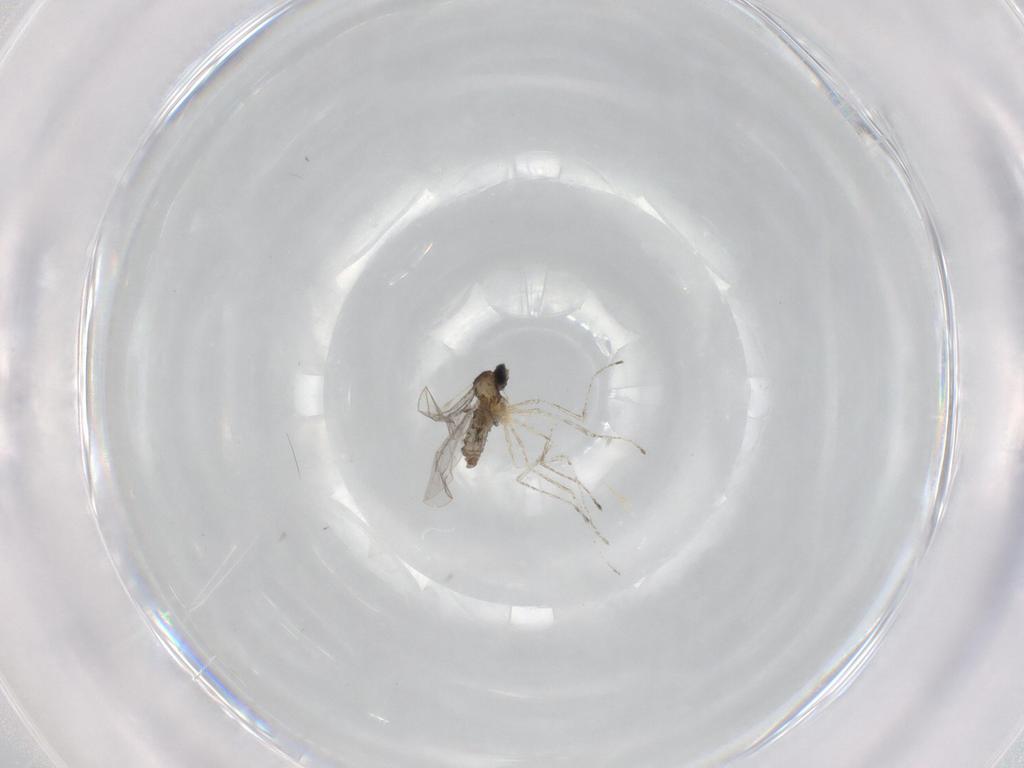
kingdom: Animalia
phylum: Arthropoda
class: Insecta
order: Diptera
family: Cecidomyiidae
